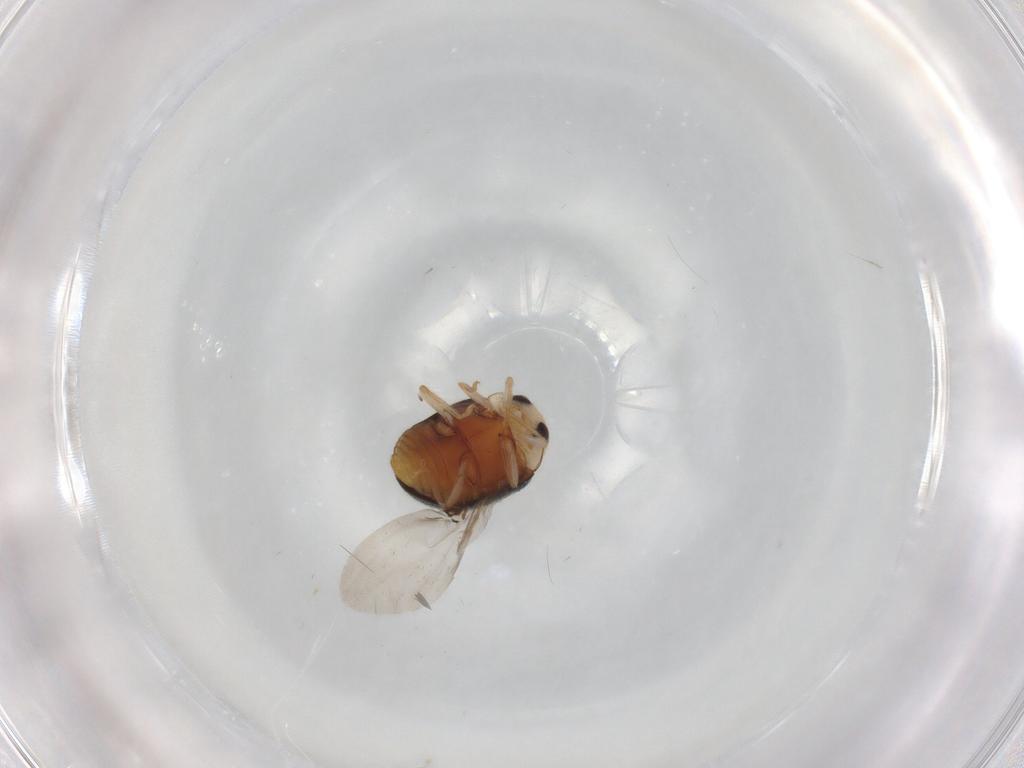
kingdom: Animalia
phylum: Arthropoda
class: Insecta
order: Coleoptera
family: Coccinellidae
